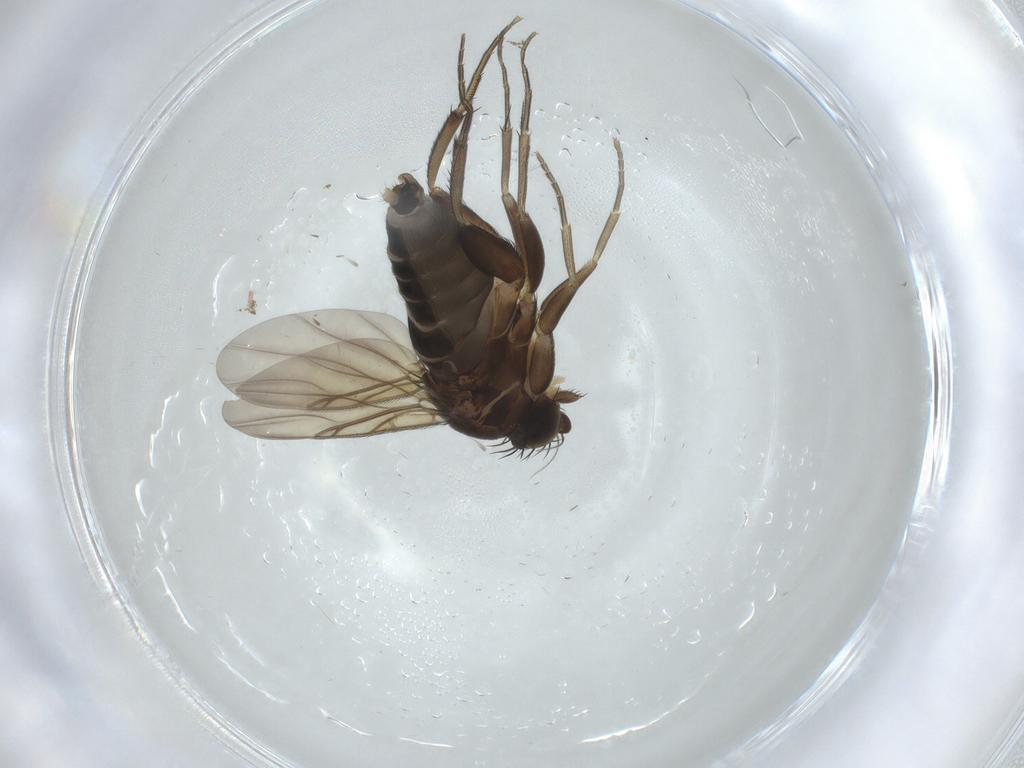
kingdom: Animalia
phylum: Arthropoda
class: Insecta
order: Diptera
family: Phoridae
